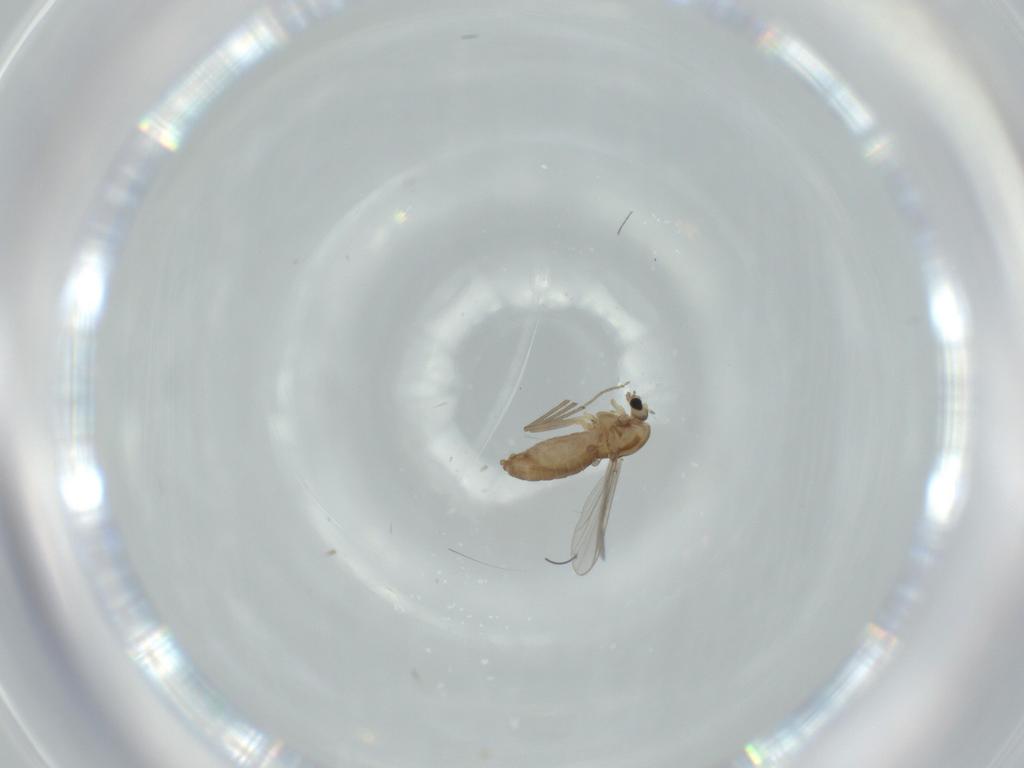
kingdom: Animalia
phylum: Arthropoda
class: Insecta
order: Diptera
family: Chironomidae
